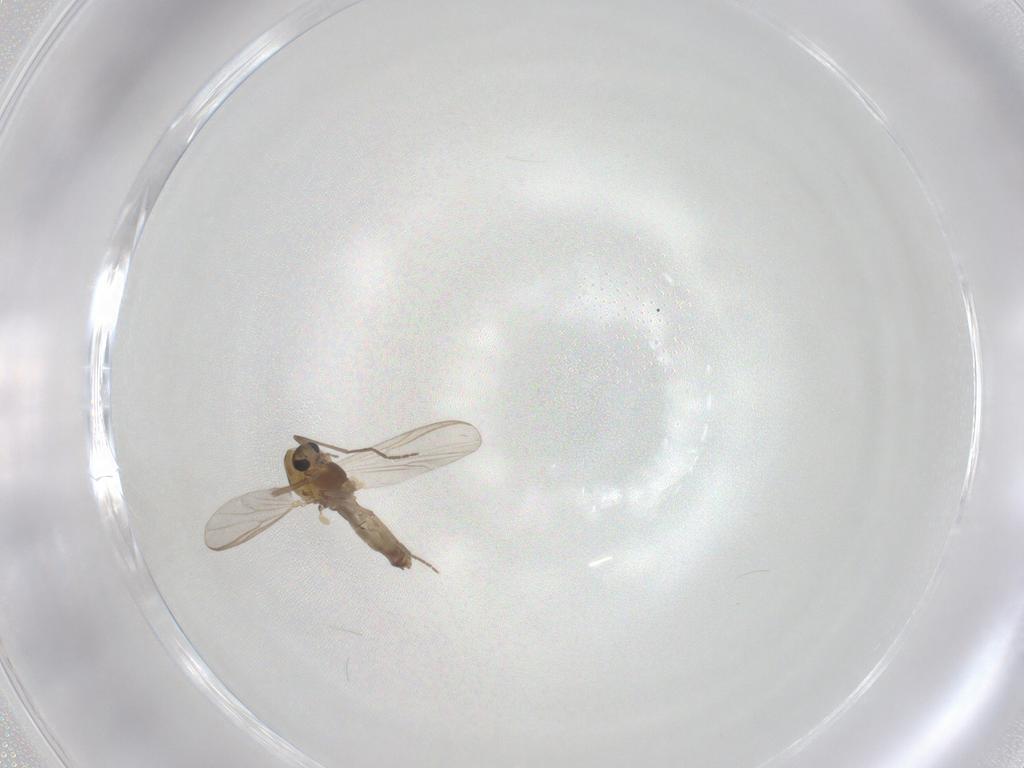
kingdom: Animalia
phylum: Arthropoda
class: Insecta
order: Diptera
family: Chironomidae
